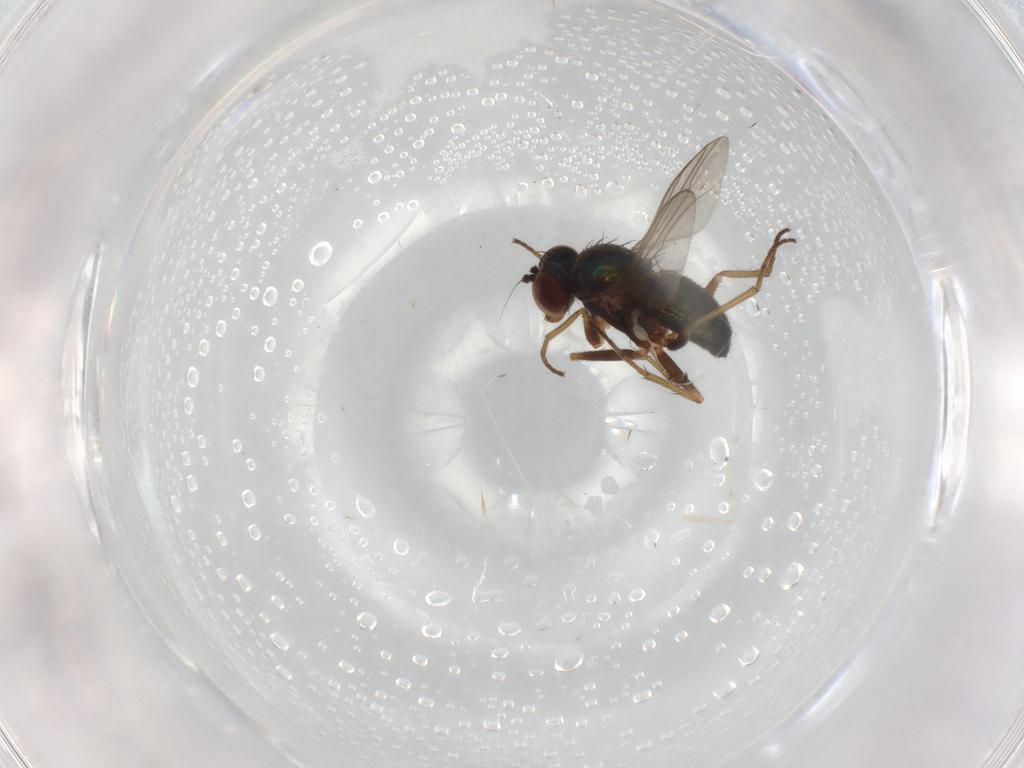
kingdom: Animalia
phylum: Arthropoda
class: Insecta
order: Diptera
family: Dolichopodidae
